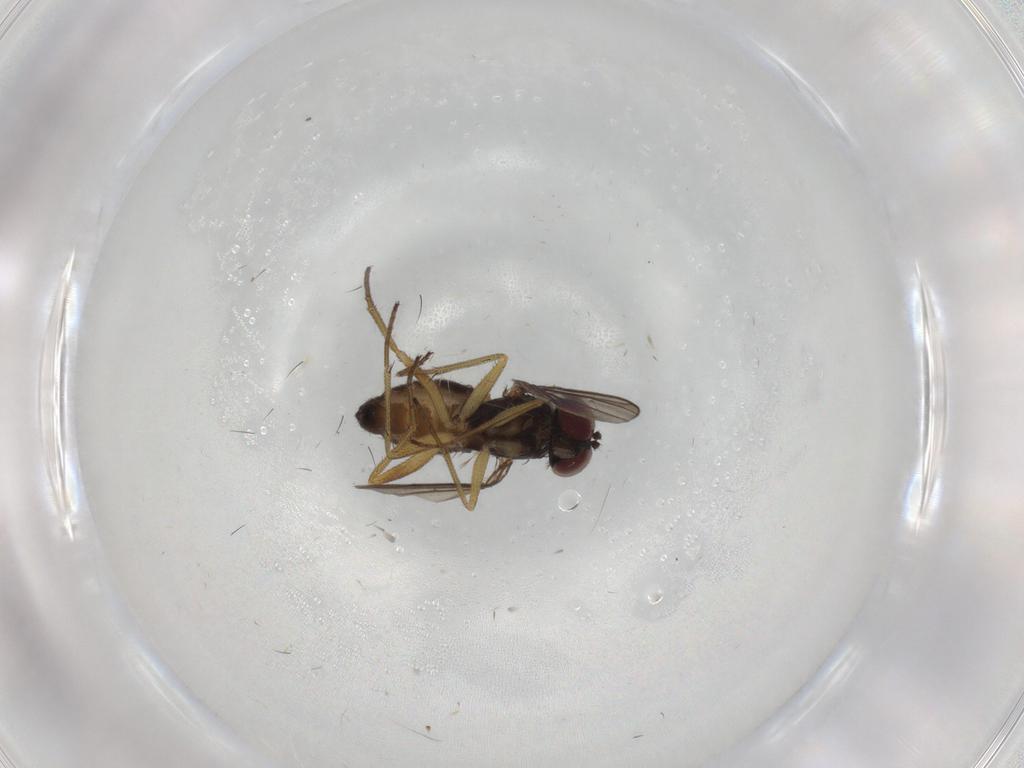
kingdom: Animalia
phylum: Arthropoda
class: Insecta
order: Diptera
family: Dolichopodidae
